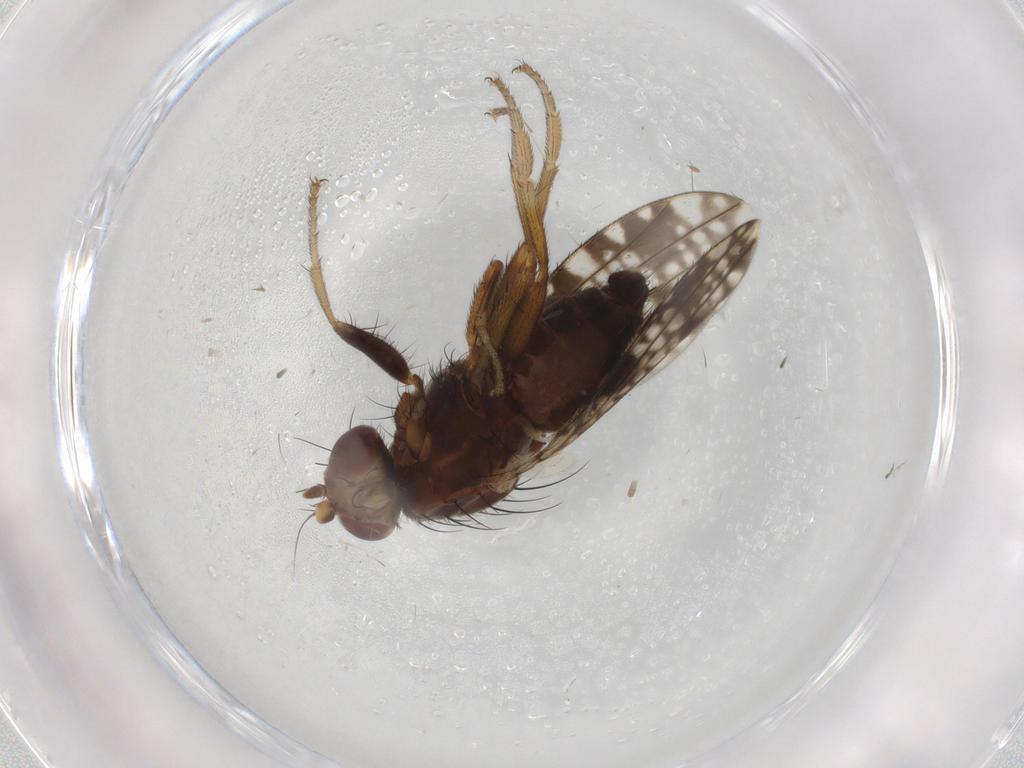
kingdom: Animalia
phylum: Arthropoda
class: Insecta
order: Diptera
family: Tephritidae
